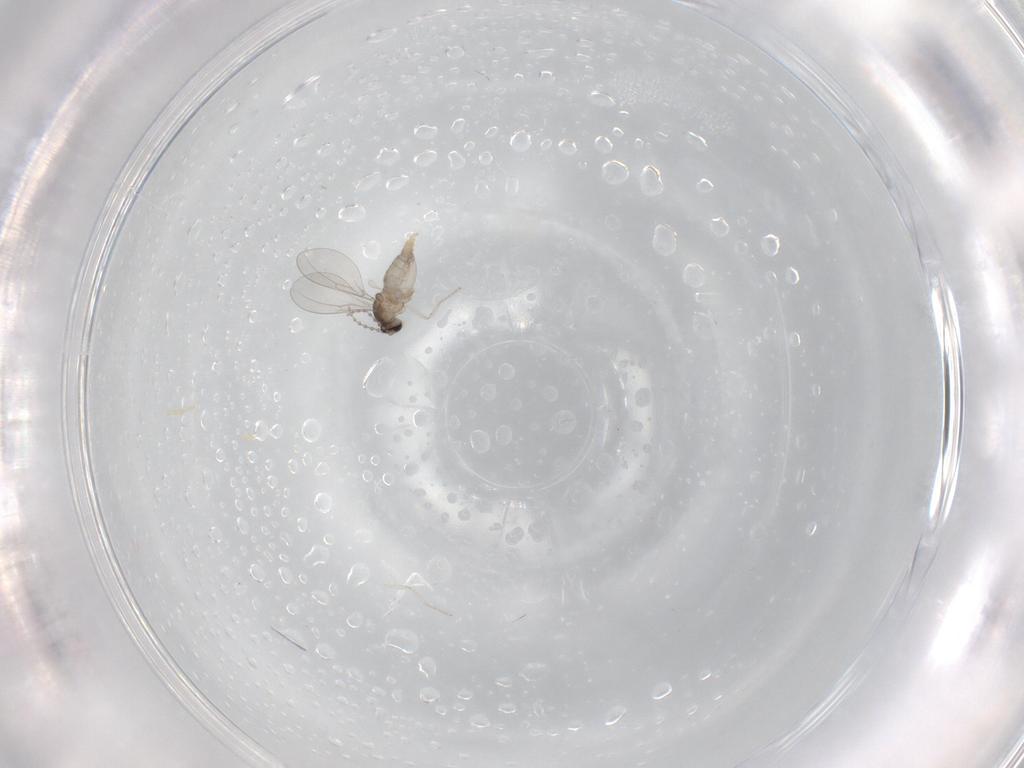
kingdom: Animalia
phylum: Arthropoda
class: Insecta
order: Diptera
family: Cecidomyiidae
